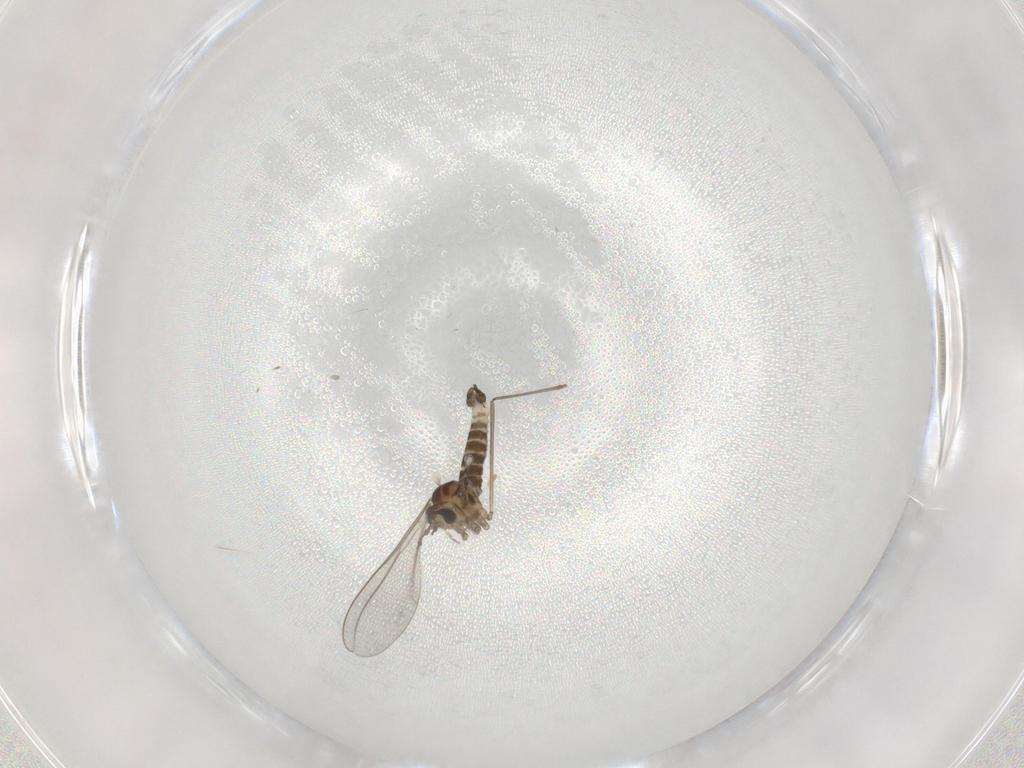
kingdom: Animalia
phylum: Arthropoda
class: Insecta
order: Diptera
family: Cecidomyiidae
